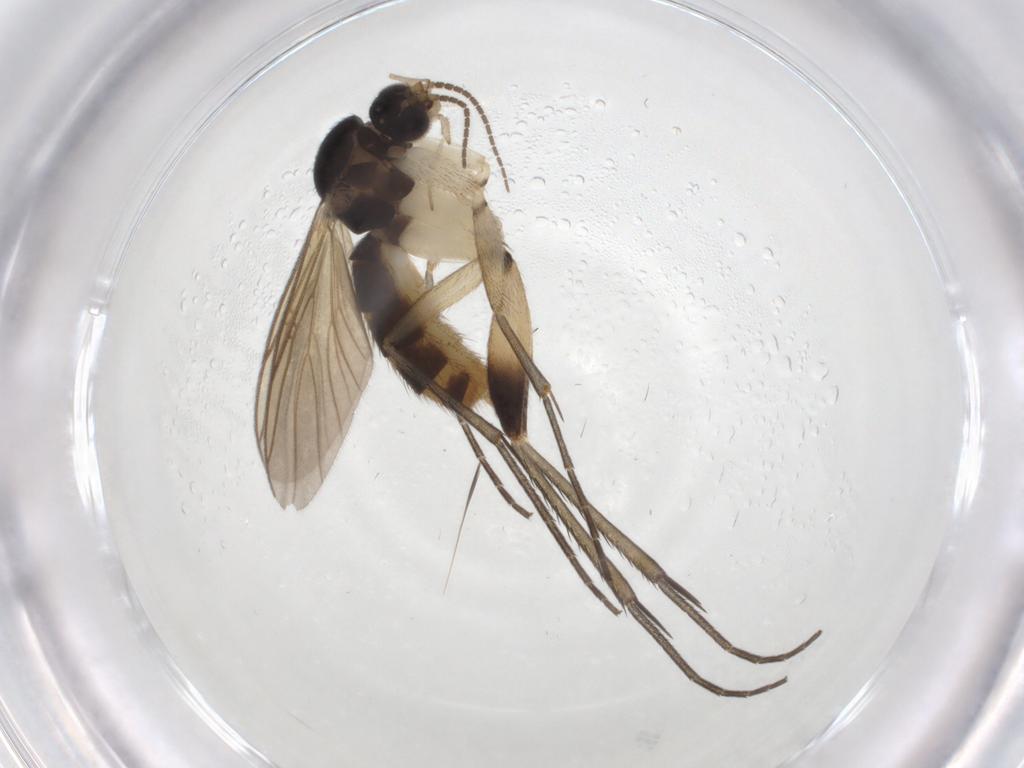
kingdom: Animalia
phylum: Arthropoda
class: Insecta
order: Diptera
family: Mycetophilidae
